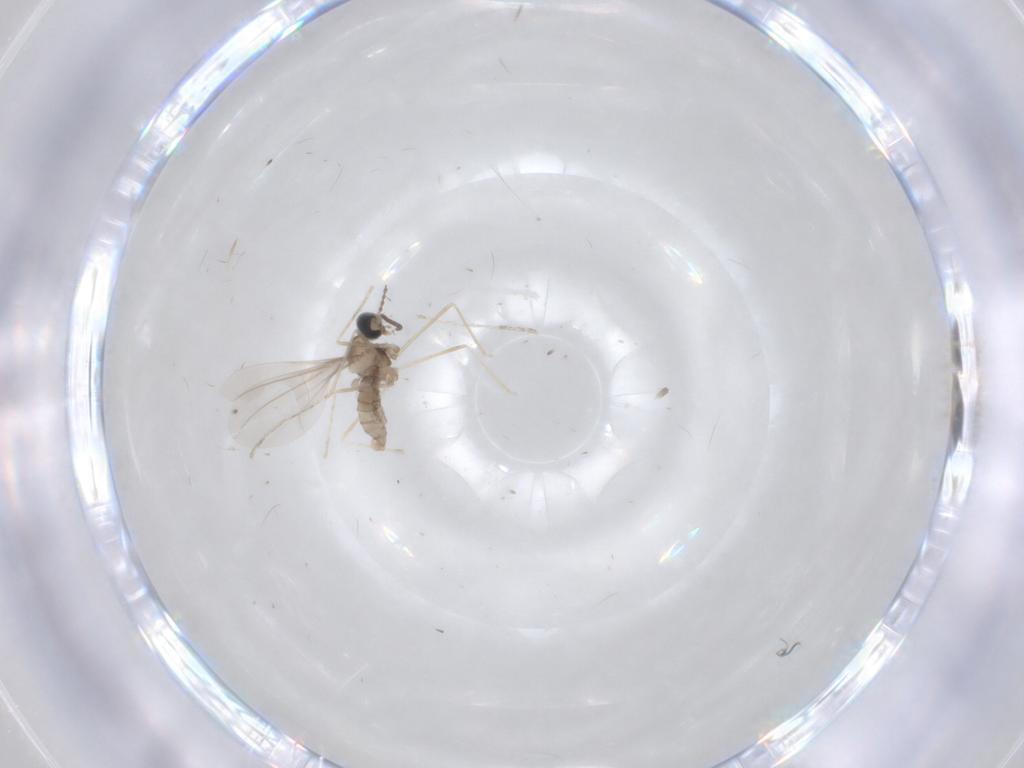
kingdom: Animalia
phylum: Arthropoda
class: Insecta
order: Diptera
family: Cecidomyiidae
